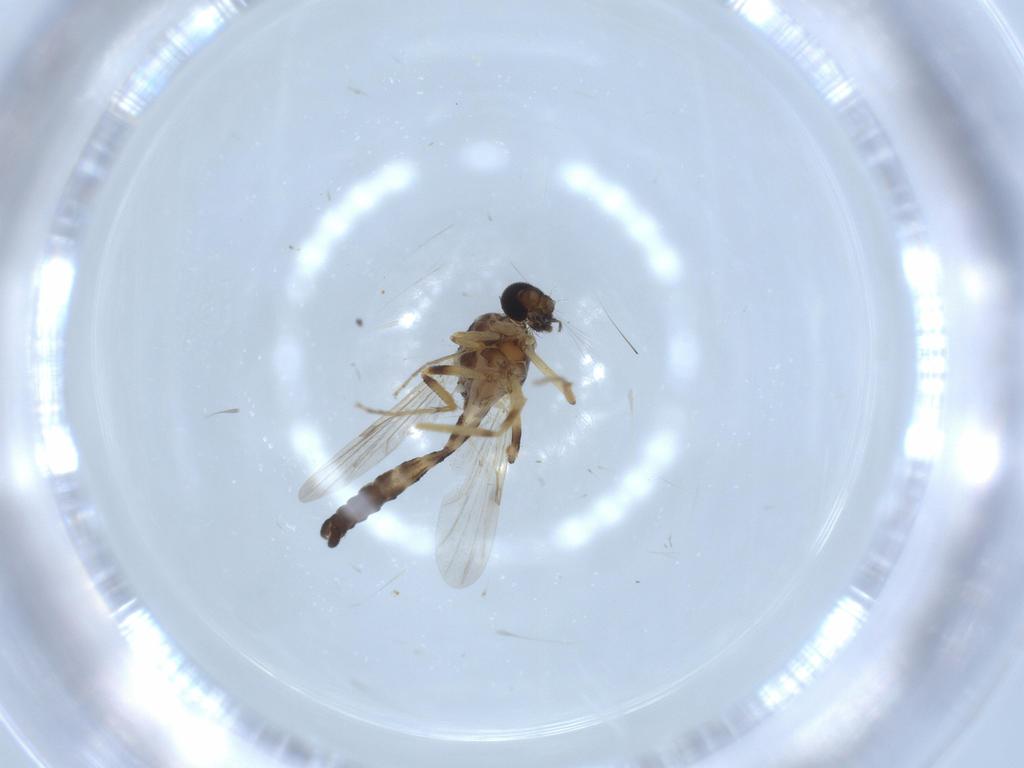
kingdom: Animalia
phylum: Arthropoda
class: Insecta
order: Diptera
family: Ceratopogonidae
